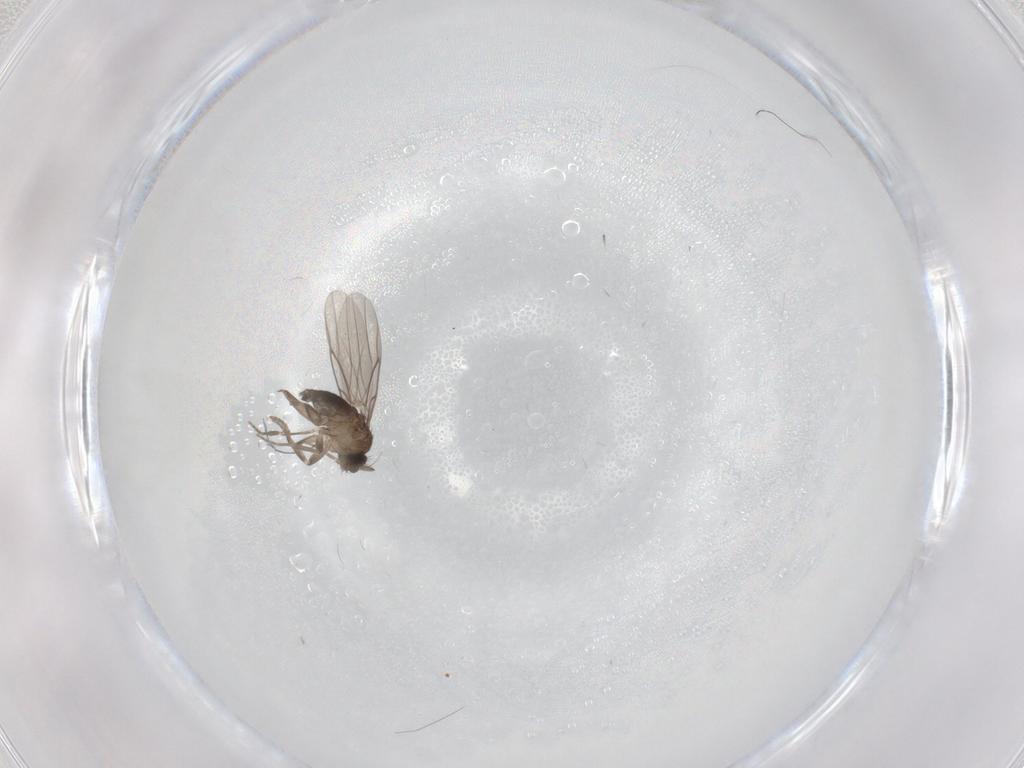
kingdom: Animalia
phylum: Arthropoda
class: Insecta
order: Diptera
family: Phoridae
